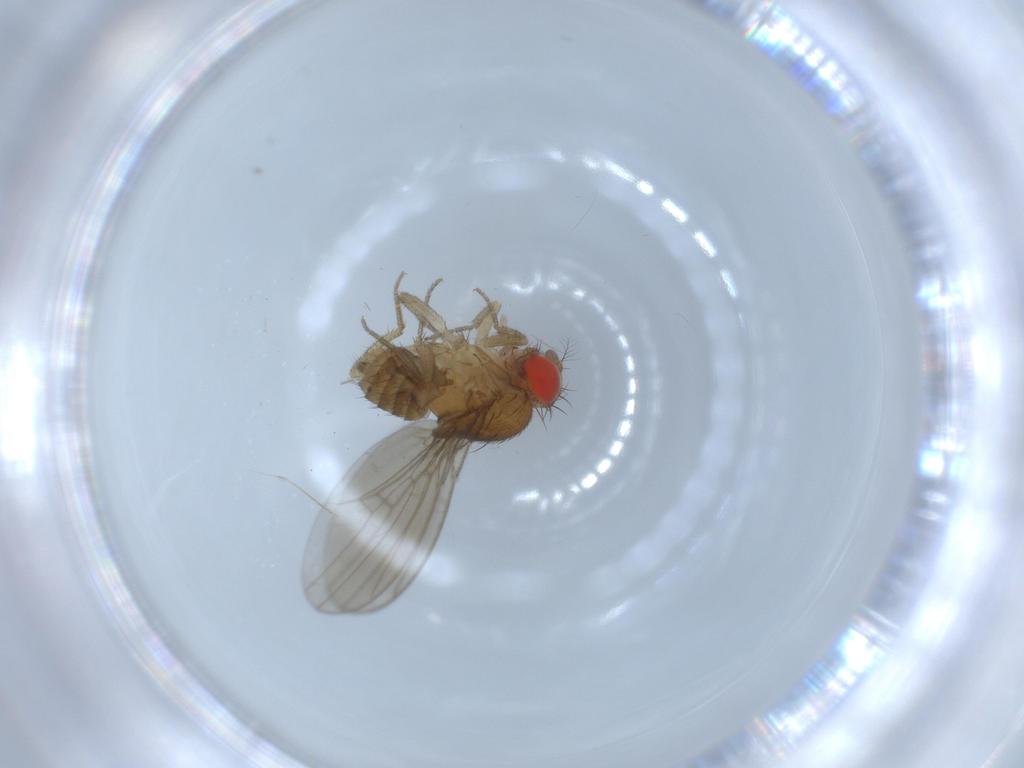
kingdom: Animalia
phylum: Arthropoda
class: Insecta
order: Diptera
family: Drosophilidae
